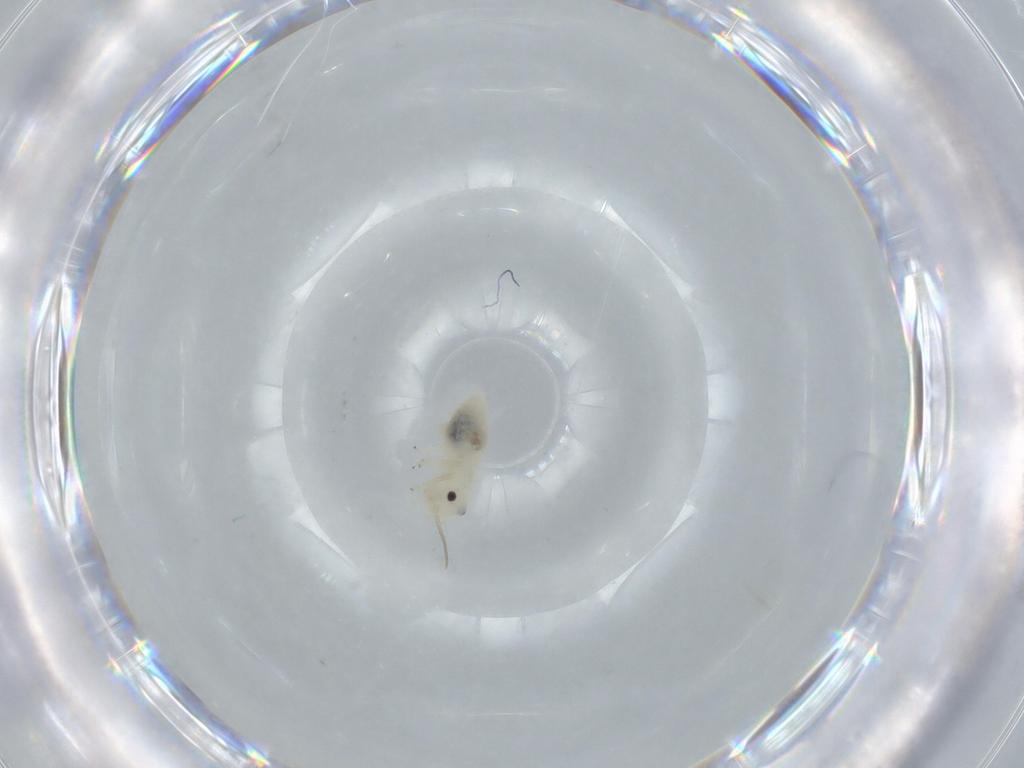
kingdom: Animalia
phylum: Arthropoda
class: Insecta
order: Psocodea
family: Caeciliusidae
